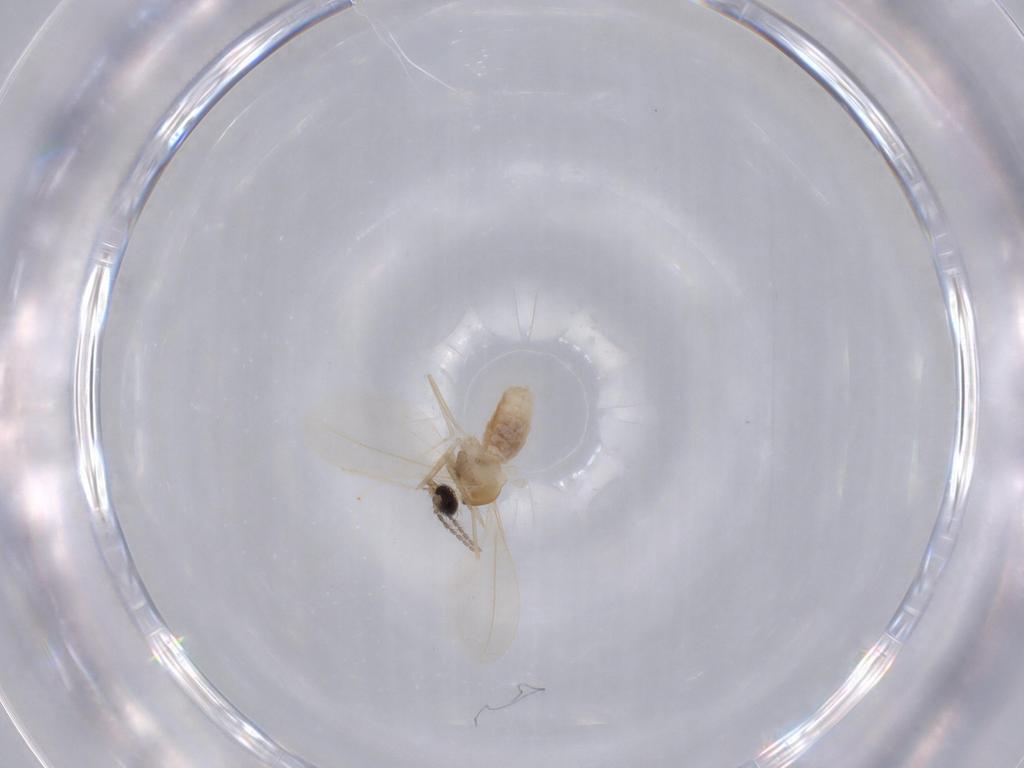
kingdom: Animalia
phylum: Arthropoda
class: Insecta
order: Diptera
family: Cecidomyiidae
